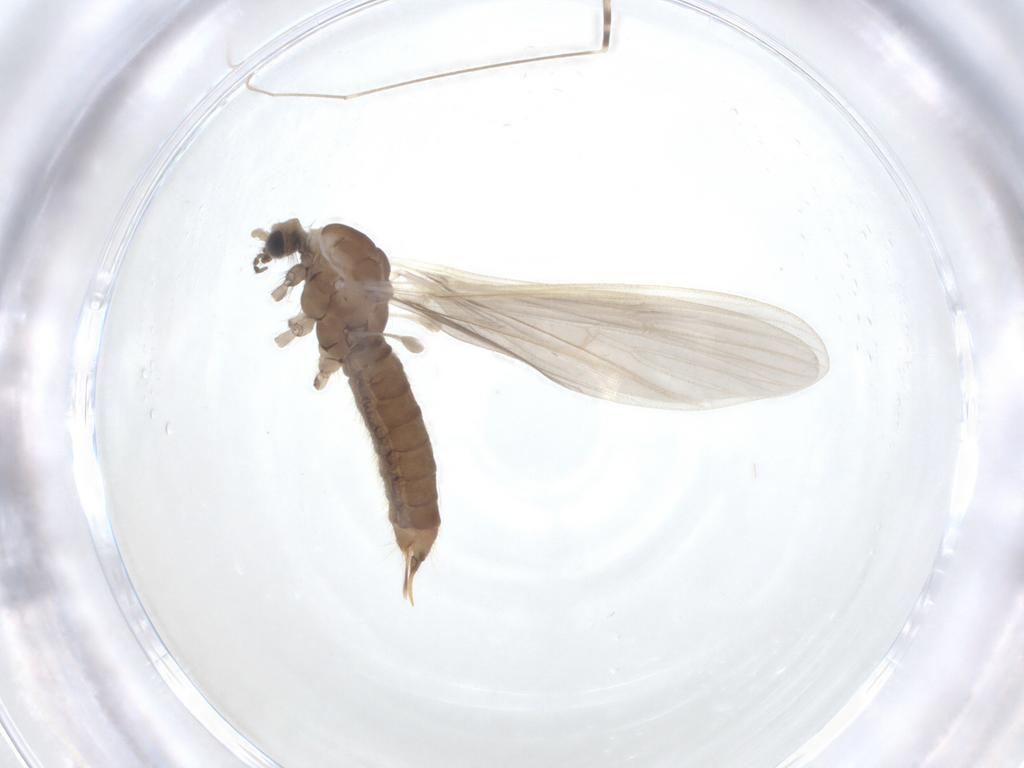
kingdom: Animalia
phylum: Arthropoda
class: Insecta
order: Diptera
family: Limoniidae
